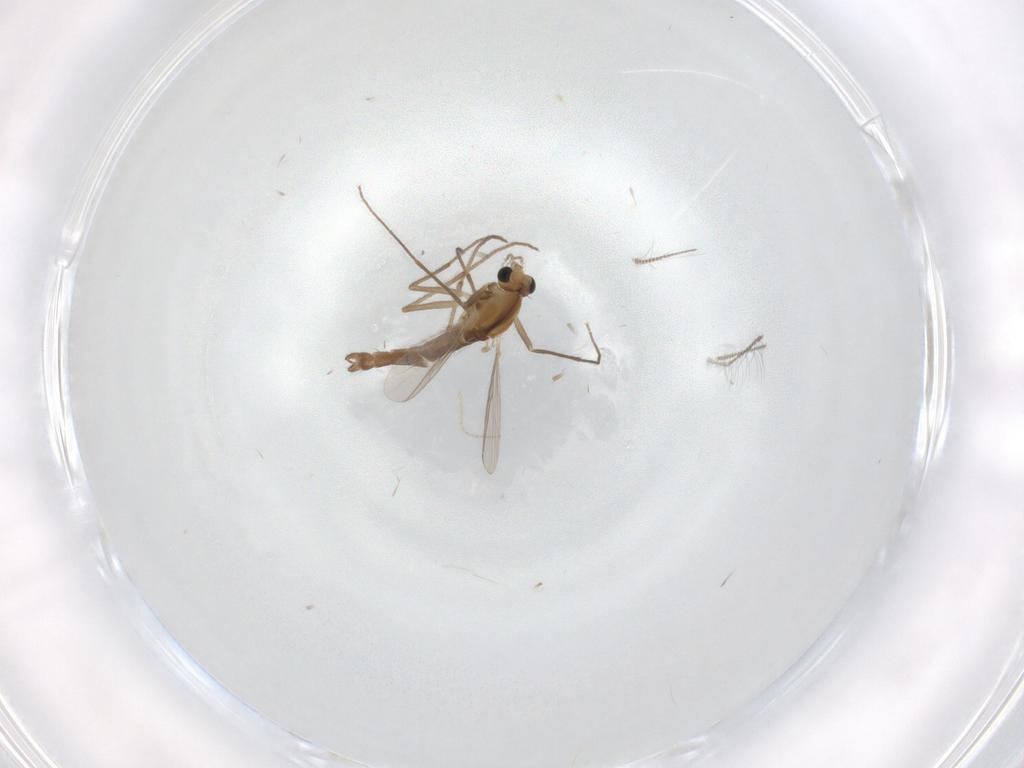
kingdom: Animalia
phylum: Arthropoda
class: Insecta
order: Diptera
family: Chironomidae
